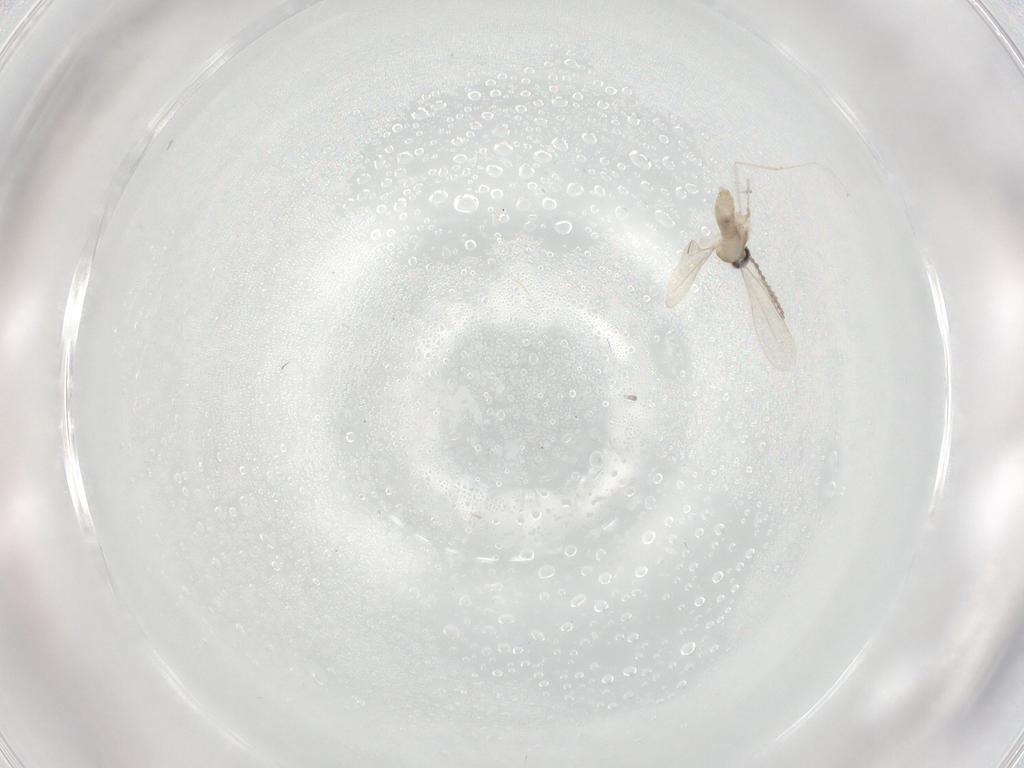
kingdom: Animalia
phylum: Arthropoda
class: Insecta
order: Diptera
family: Cecidomyiidae
